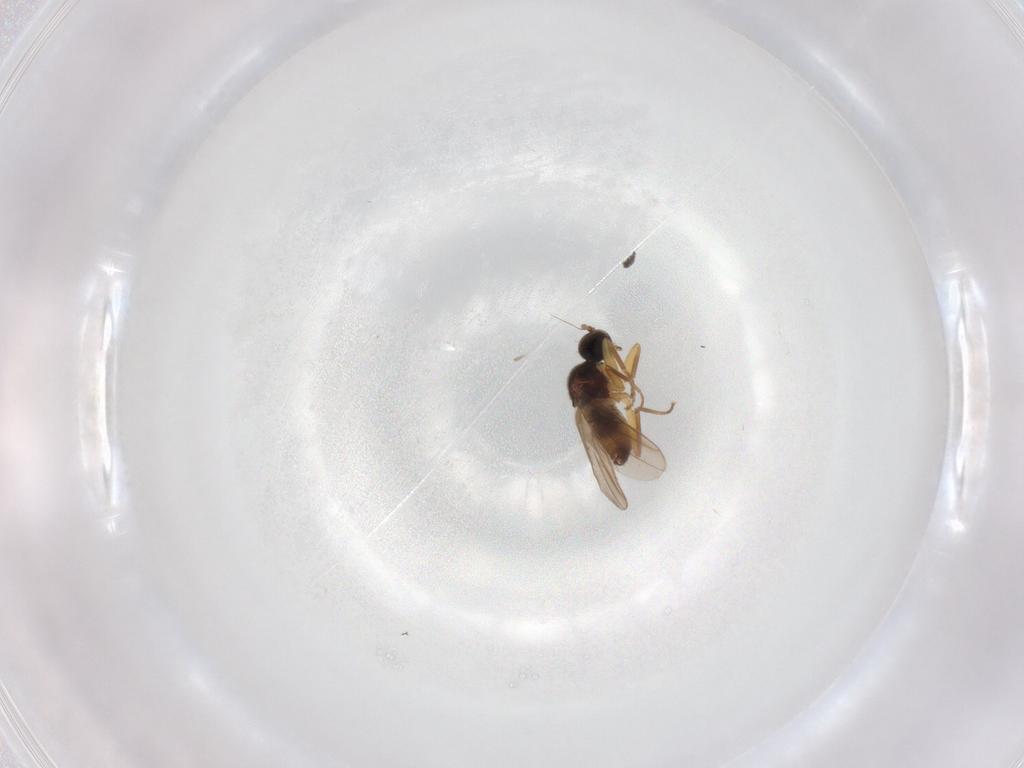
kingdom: Animalia
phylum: Arthropoda
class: Insecta
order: Diptera
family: Hybotidae
